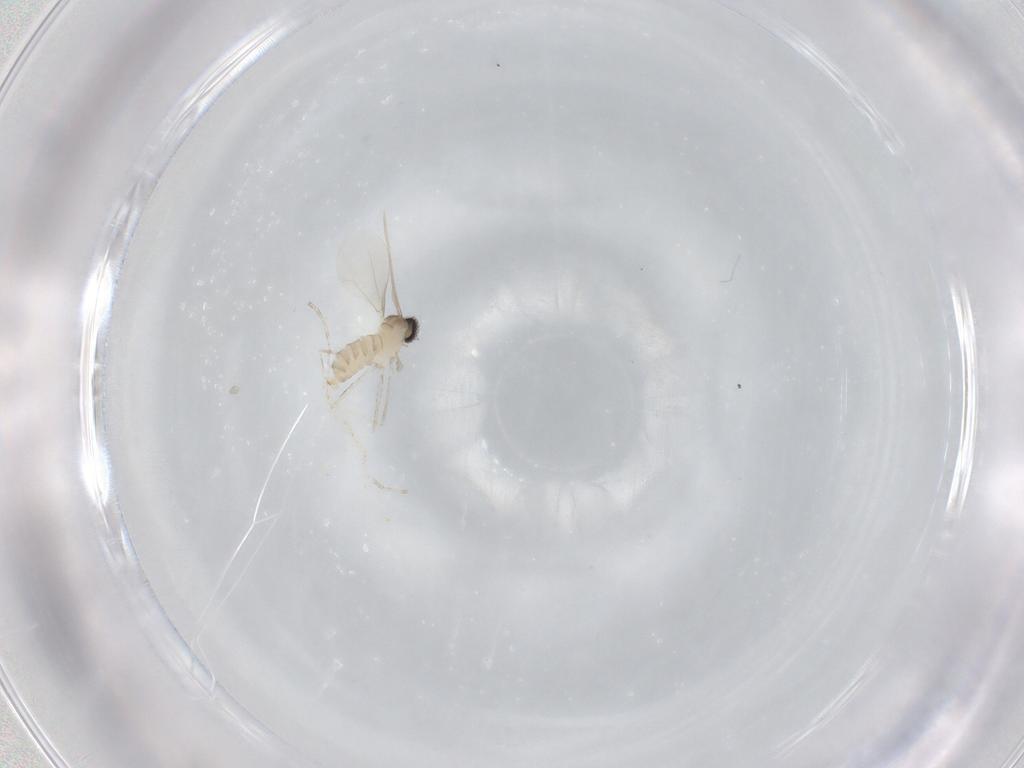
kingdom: Animalia
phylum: Arthropoda
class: Insecta
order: Diptera
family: Cecidomyiidae
